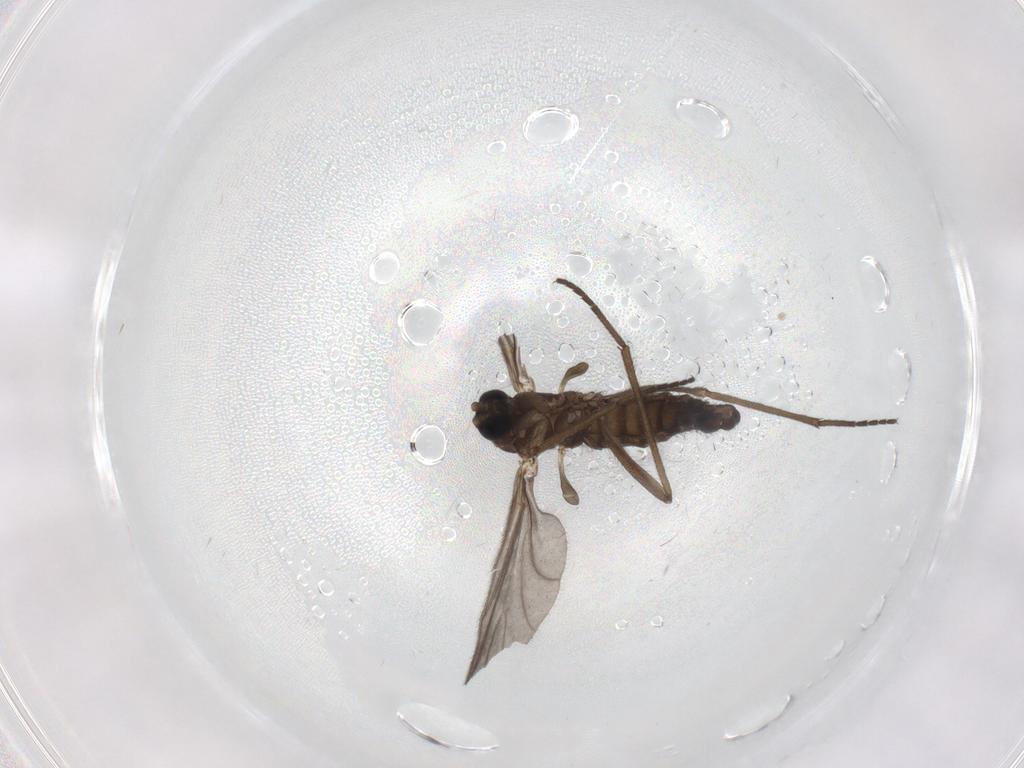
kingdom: Animalia
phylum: Arthropoda
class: Insecta
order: Diptera
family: Sciaridae
